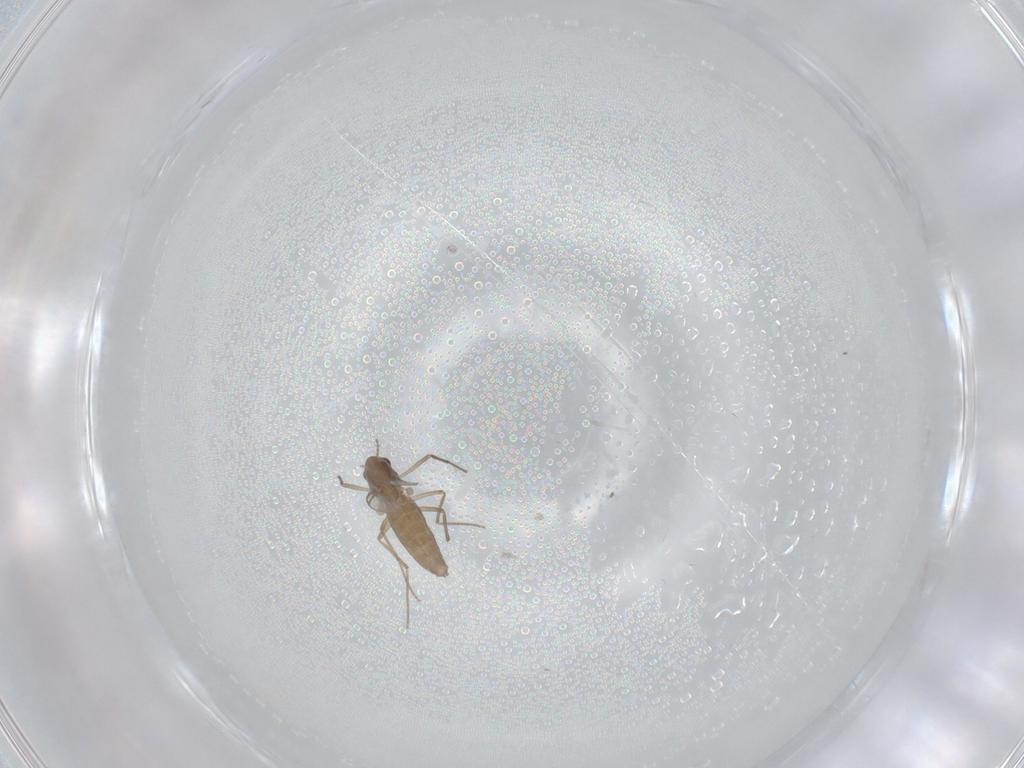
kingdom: Animalia
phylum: Arthropoda
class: Insecta
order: Diptera
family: Chironomidae
